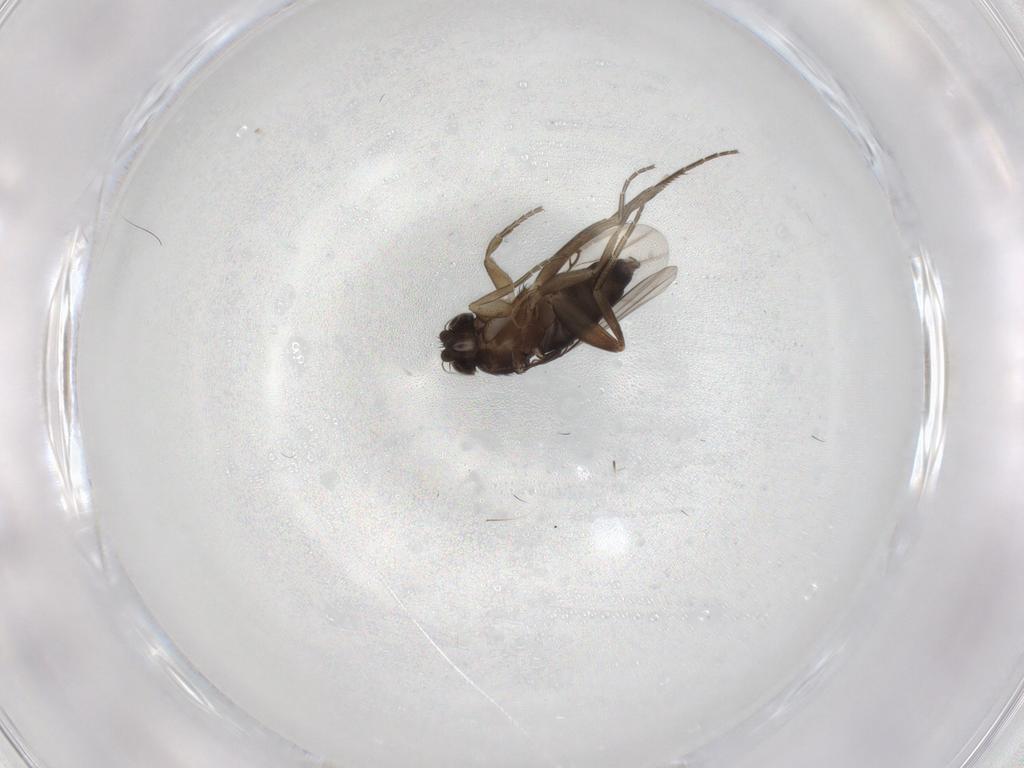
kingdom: Animalia
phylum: Arthropoda
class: Insecta
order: Diptera
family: Phoridae
